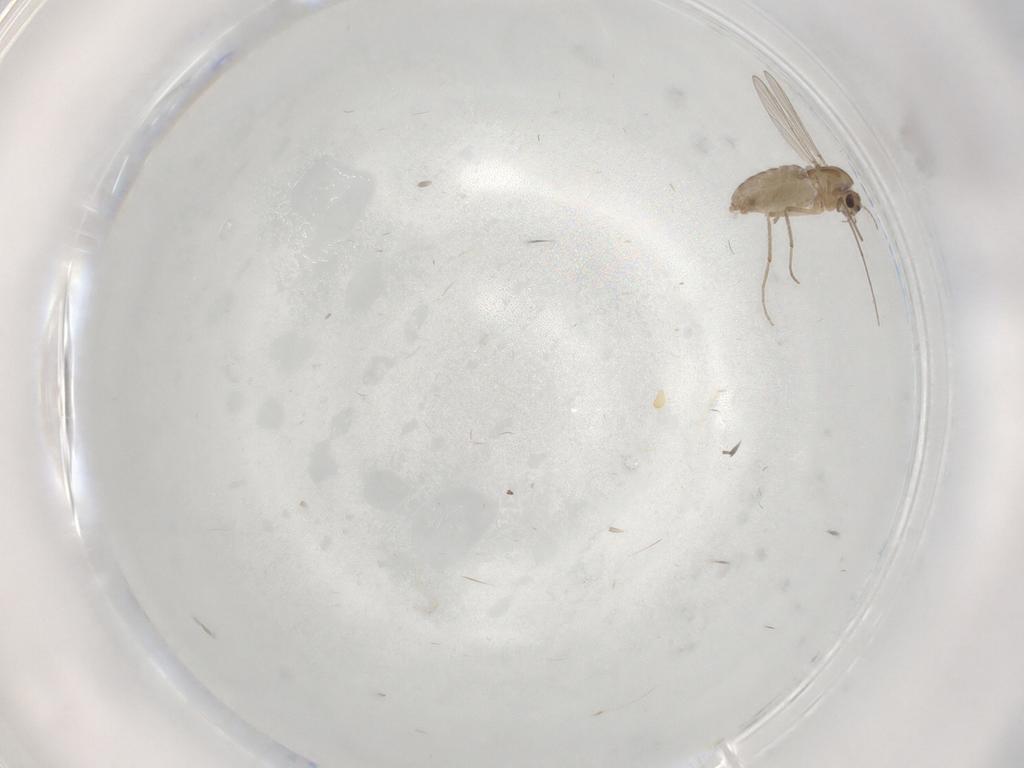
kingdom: Animalia
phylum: Arthropoda
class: Insecta
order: Diptera
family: Chironomidae
